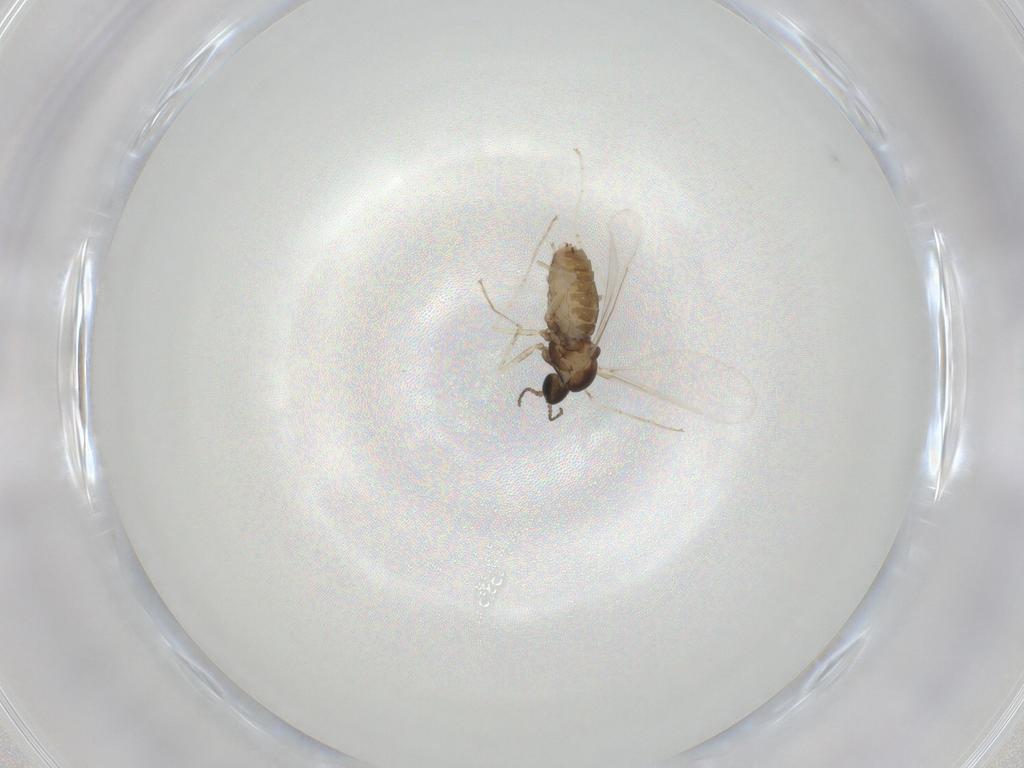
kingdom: Animalia
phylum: Arthropoda
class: Insecta
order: Diptera
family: Cecidomyiidae
